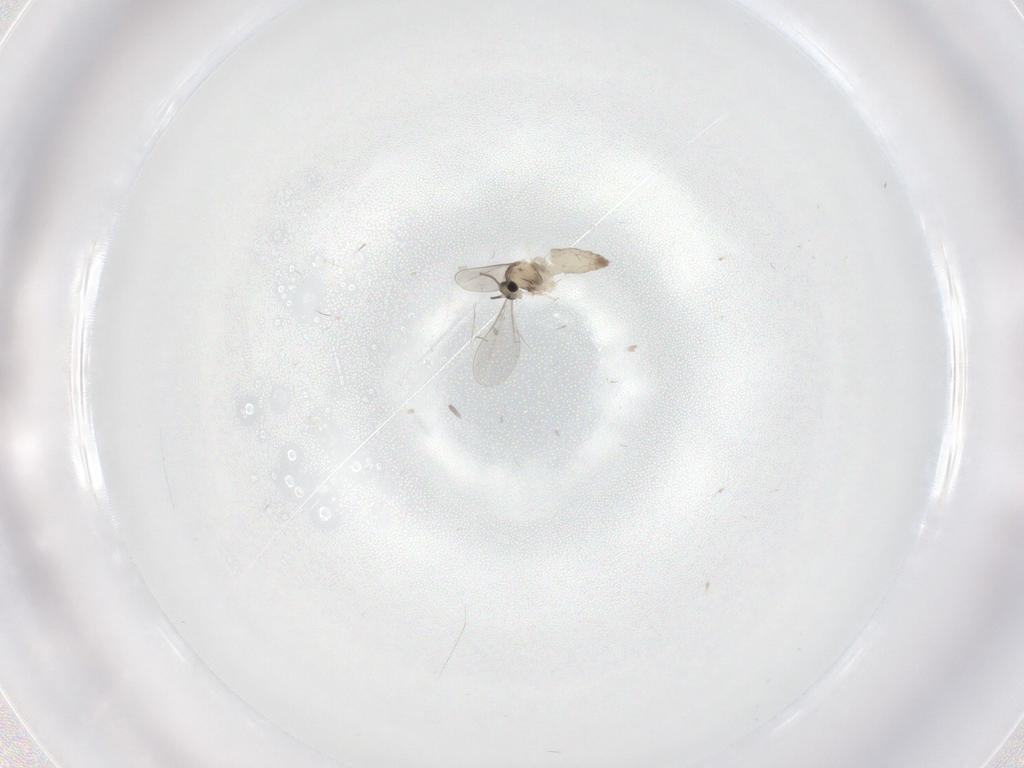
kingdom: Animalia
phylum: Arthropoda
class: Insecta
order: Diptera
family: Cecidomyiidae
